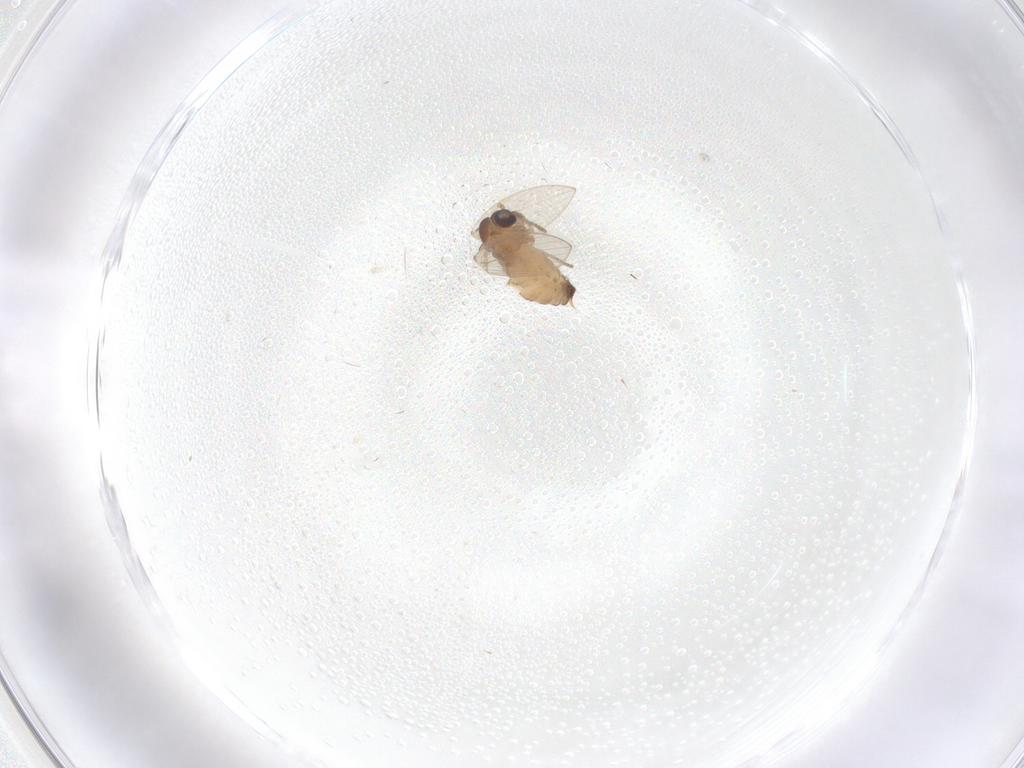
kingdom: Animalia
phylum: Arthropoda
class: Insecta
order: Diptera
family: Psychodidae
